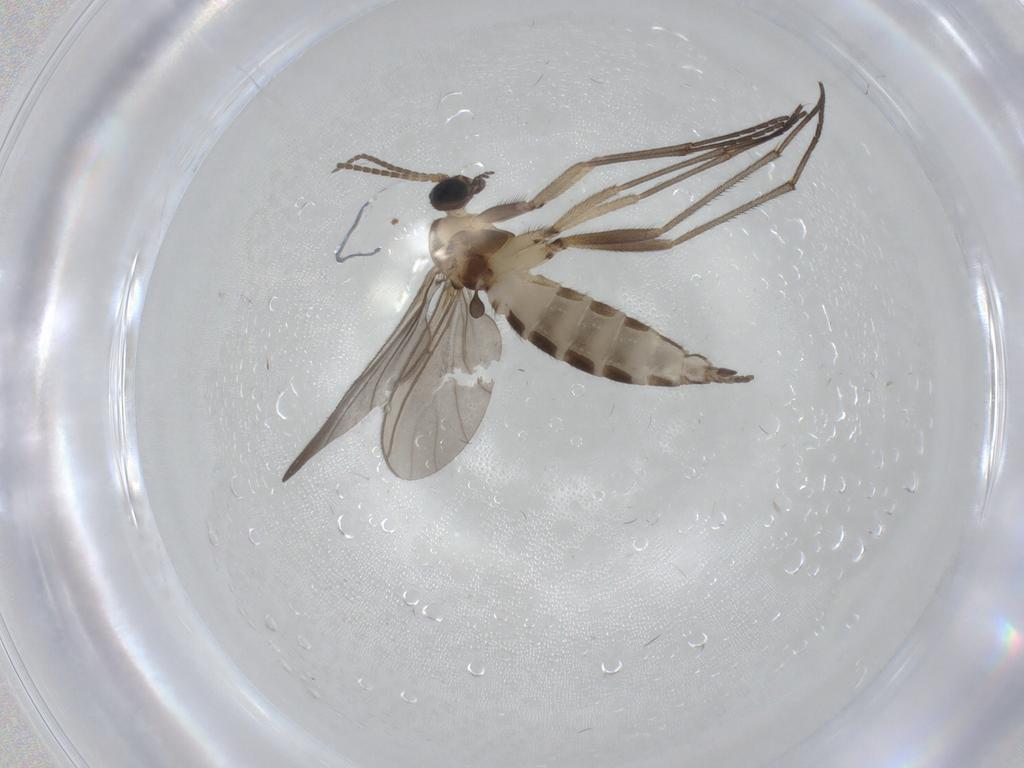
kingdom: Animalia
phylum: Arthropoda
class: Insecta
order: Diptera
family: Sciaridae
